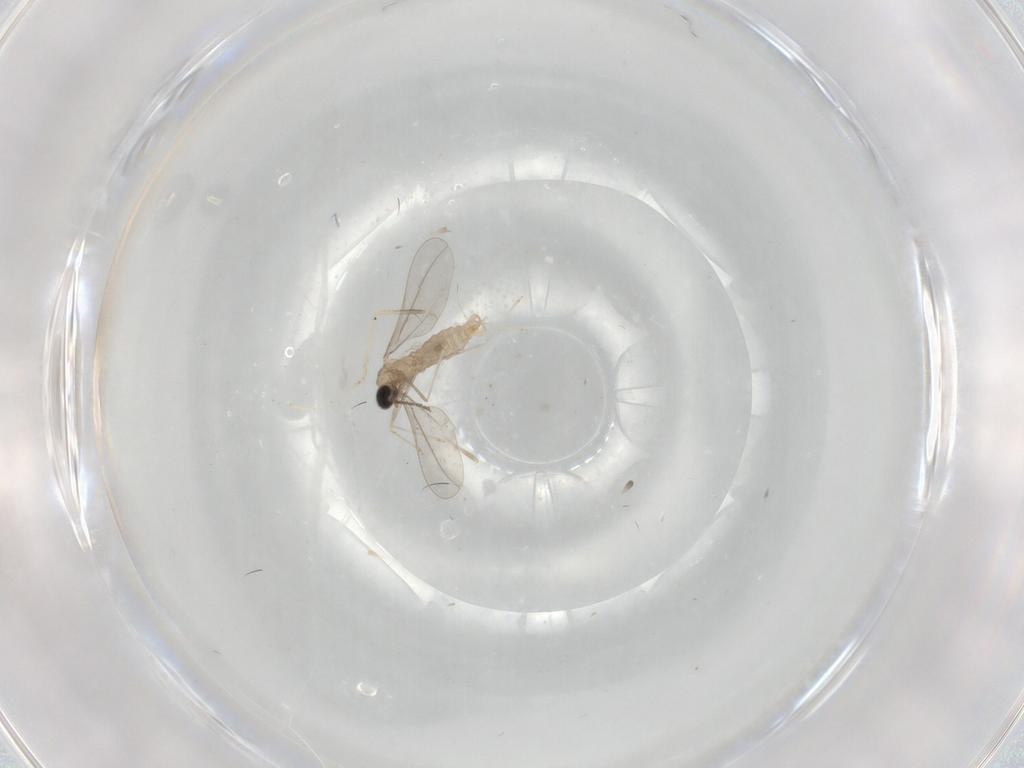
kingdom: Animalia
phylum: Arthropoda
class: Insecta
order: Diptera
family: Cecidomyiidae
